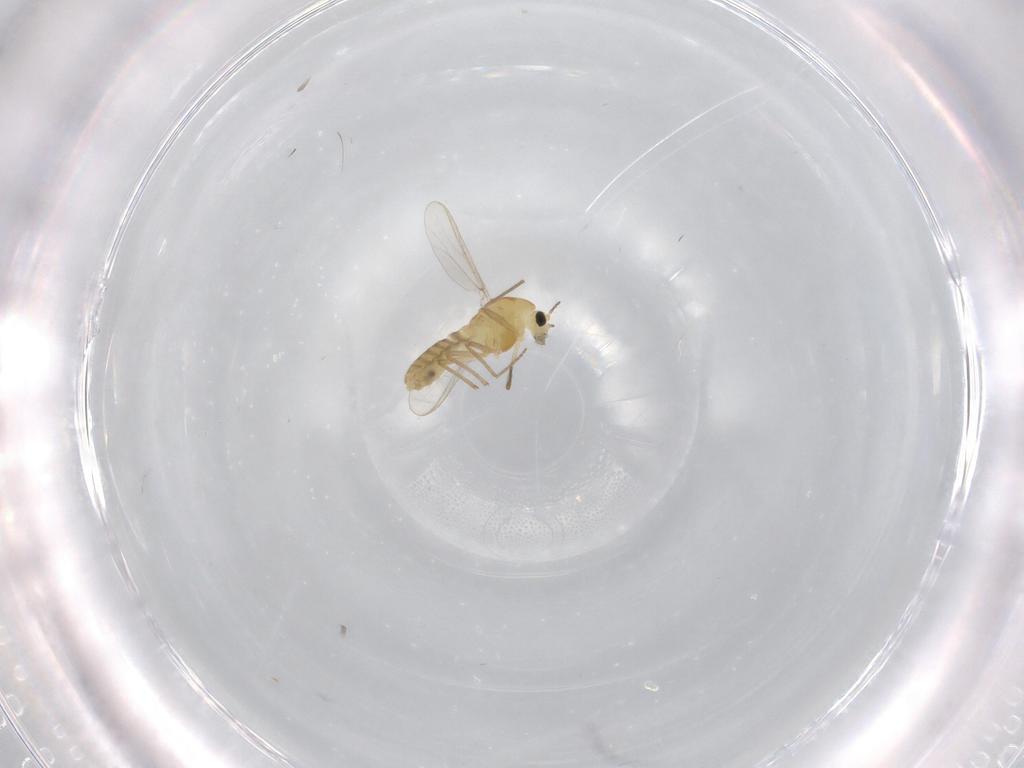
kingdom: Animalia
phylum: Arthropoda
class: Insecta
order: Diptera
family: Chironomidae
